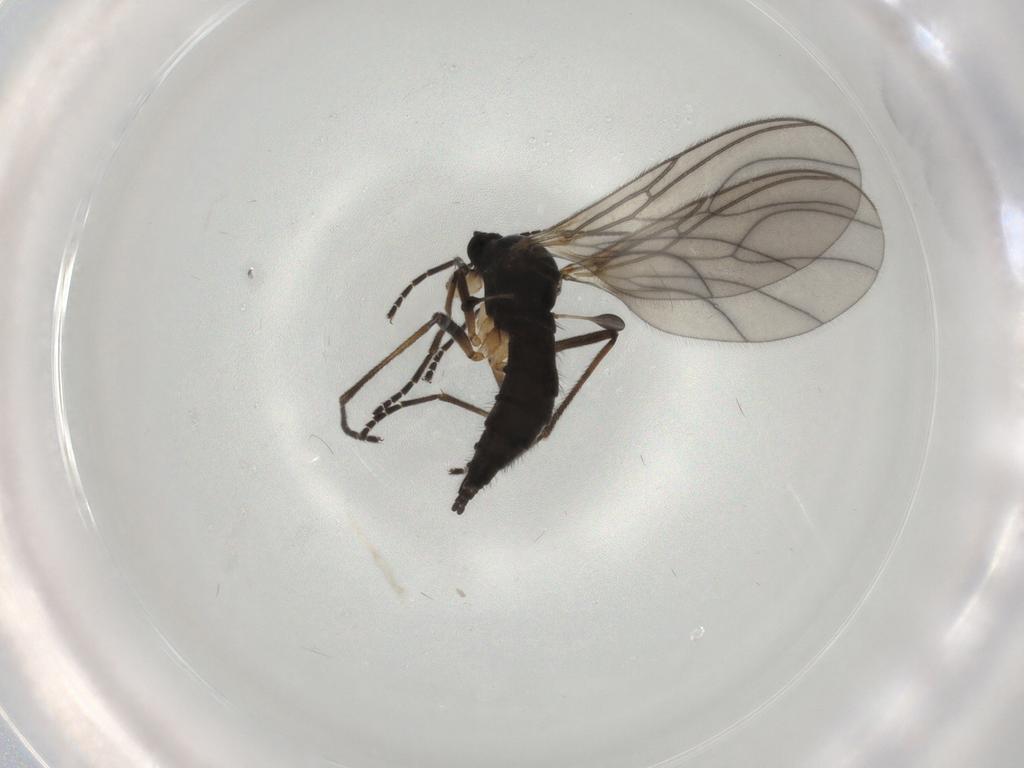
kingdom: Animalia
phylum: Arthropoda
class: Insecta
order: Diptera
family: Sciaridae
